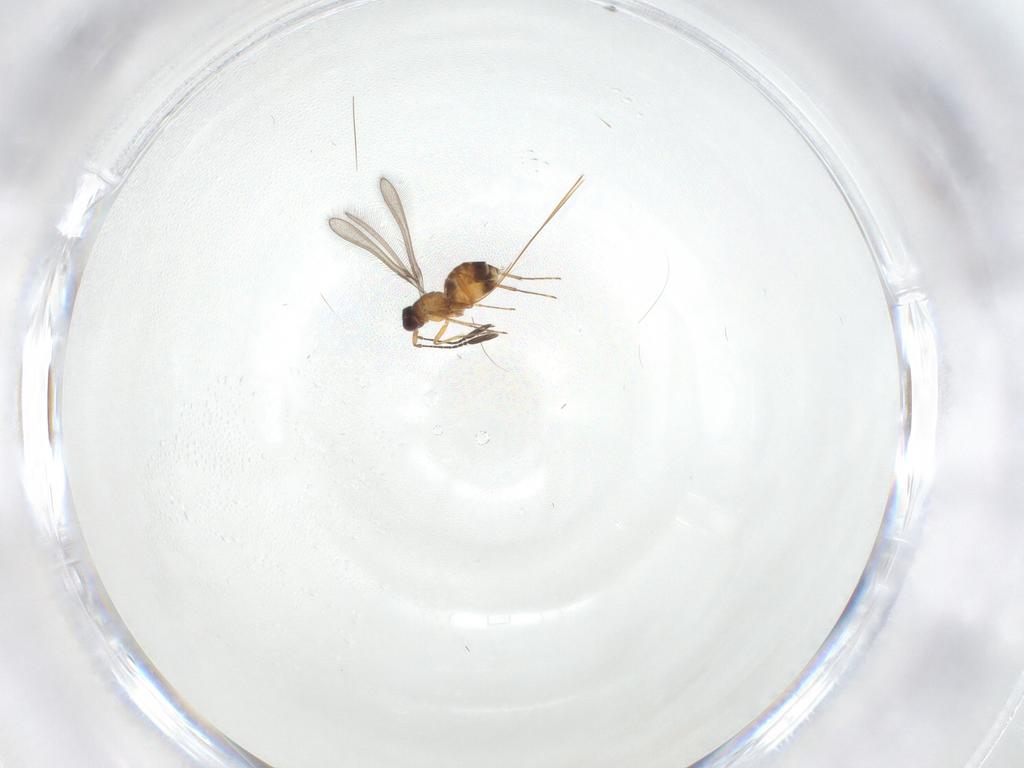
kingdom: Animalia
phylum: Arthropoda
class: Insecta
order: Hymenoptera
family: Mymaridae
